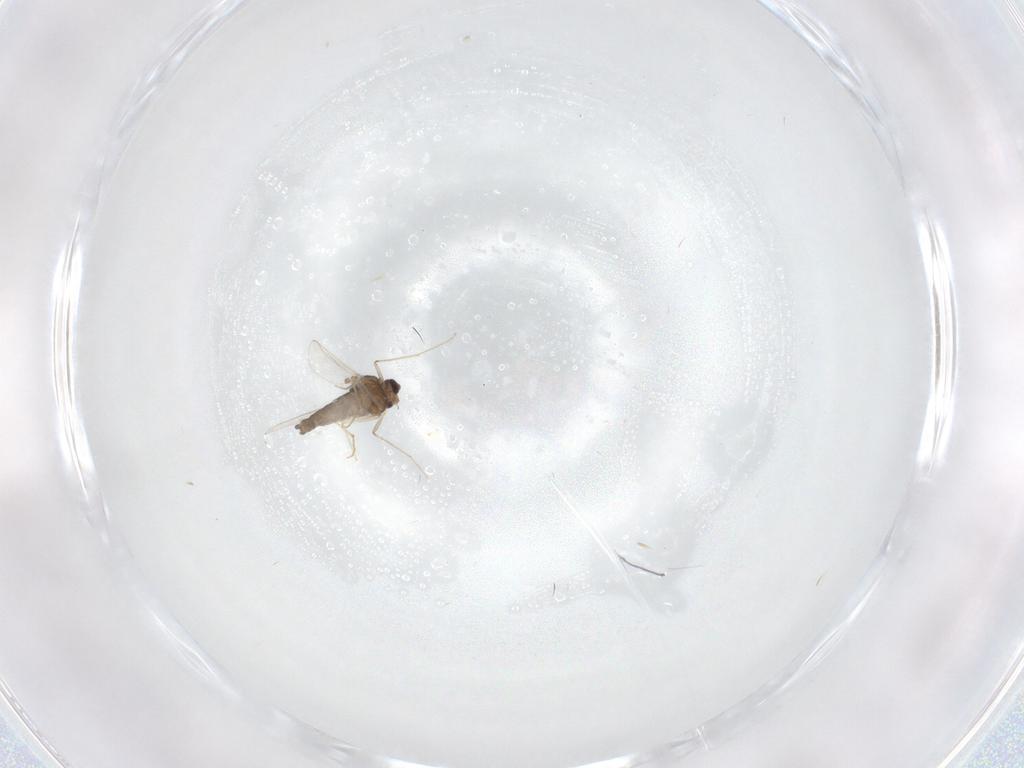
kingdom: Animalia
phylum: Arthropoda
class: Insecta
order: Diptera
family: Chironomidae
